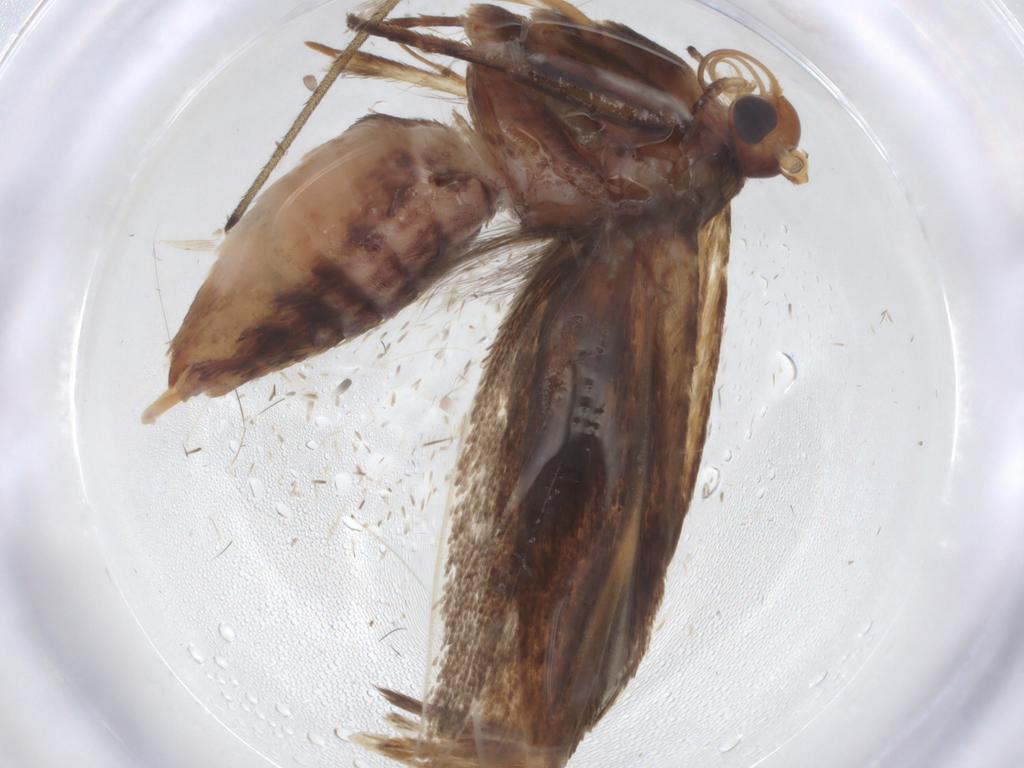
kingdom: Animalia
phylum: Arthropoda
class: Insecta
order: Lepidoptera
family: Scythrididae
